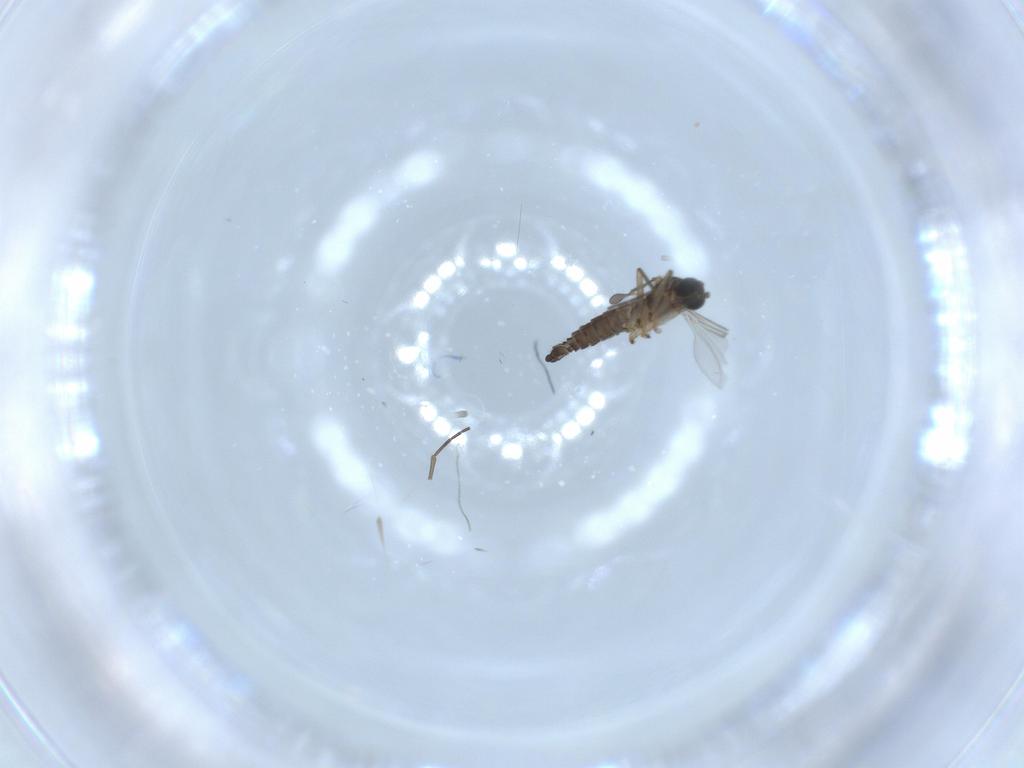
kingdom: Animalia
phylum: Arthropoda
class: Insecta
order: Diptera
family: Sciaridae
